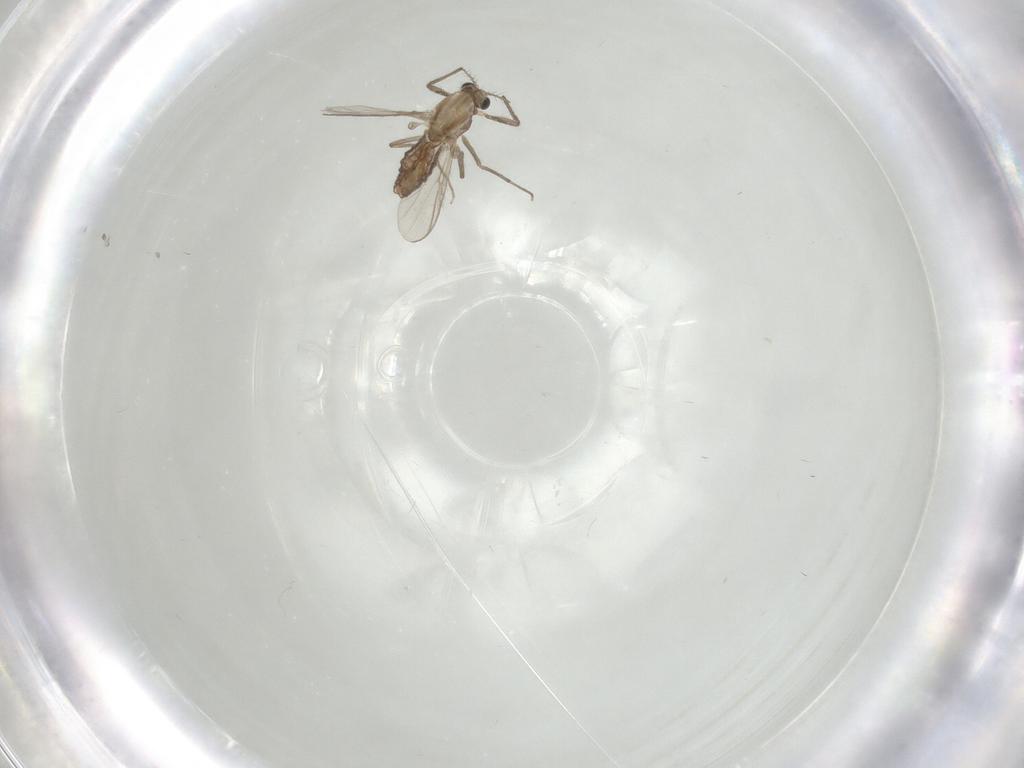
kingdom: Animalia
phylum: Arthropoda
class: Insecta
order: Diptera
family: Chironomidae
